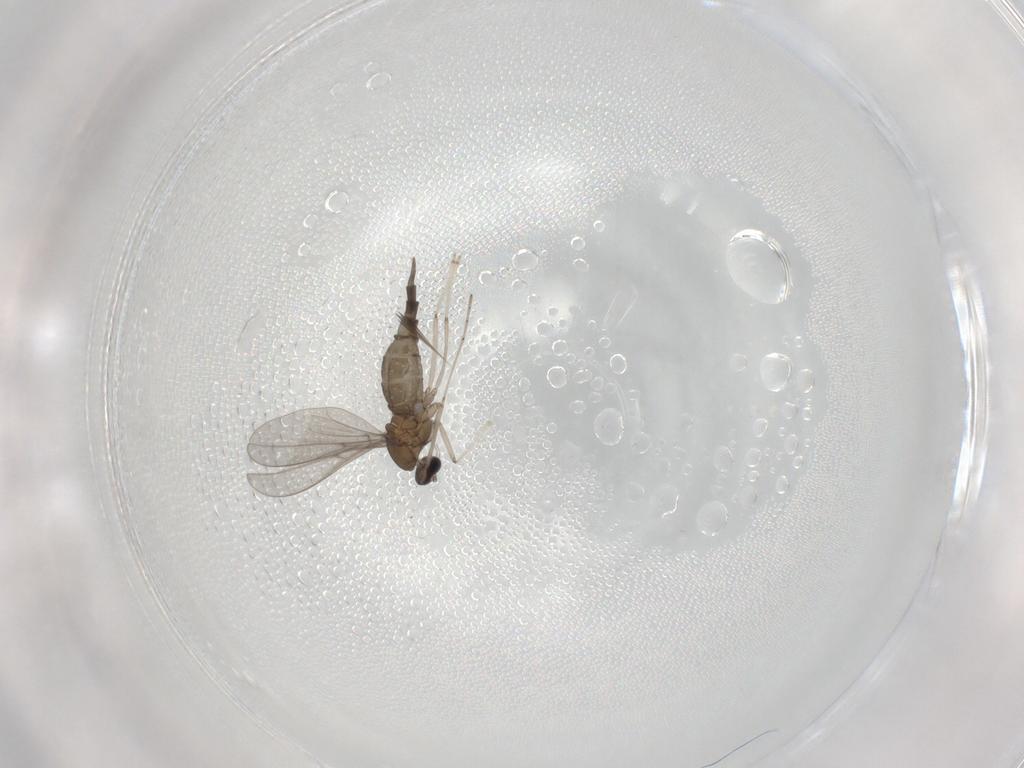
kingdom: Animalia
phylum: Arthropoda
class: Insecta
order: Diptera
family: Cecidomyiidae
